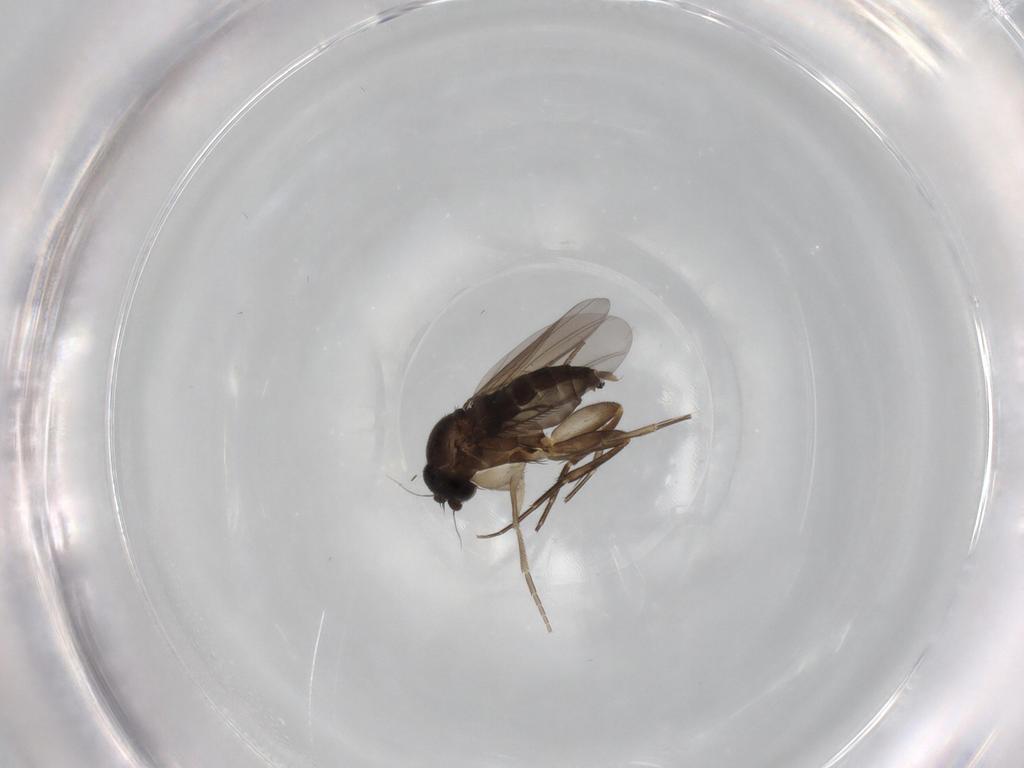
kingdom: Animalia
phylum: Arthropoda
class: Insecta
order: Diptera
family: Phoridae
